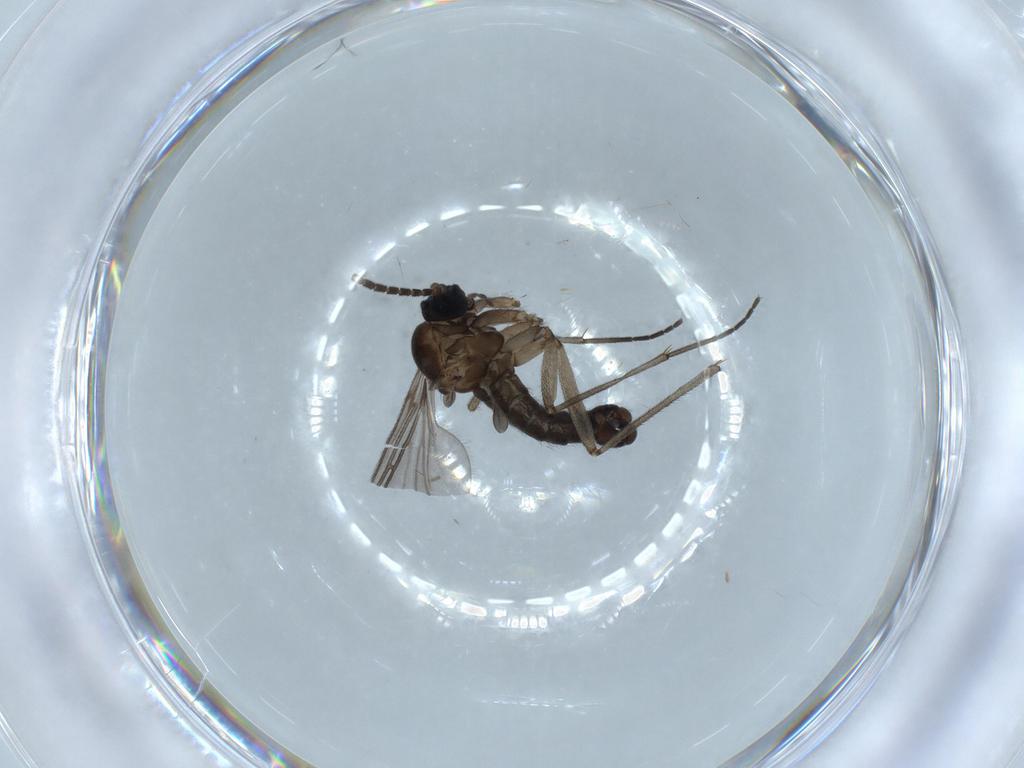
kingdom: Animalia
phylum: Arthropoda
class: Insecta
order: Diptera
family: Sciaridae
